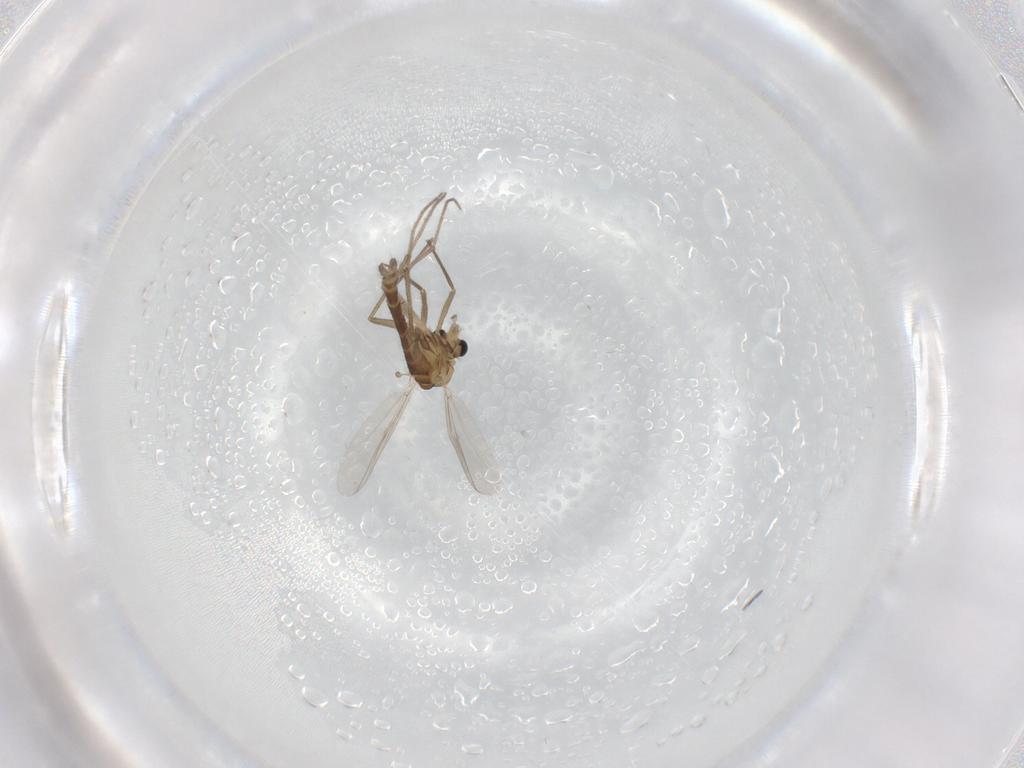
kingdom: Animalia
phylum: Arthropoda
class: Insecta
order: Diptera
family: Chironomidae
